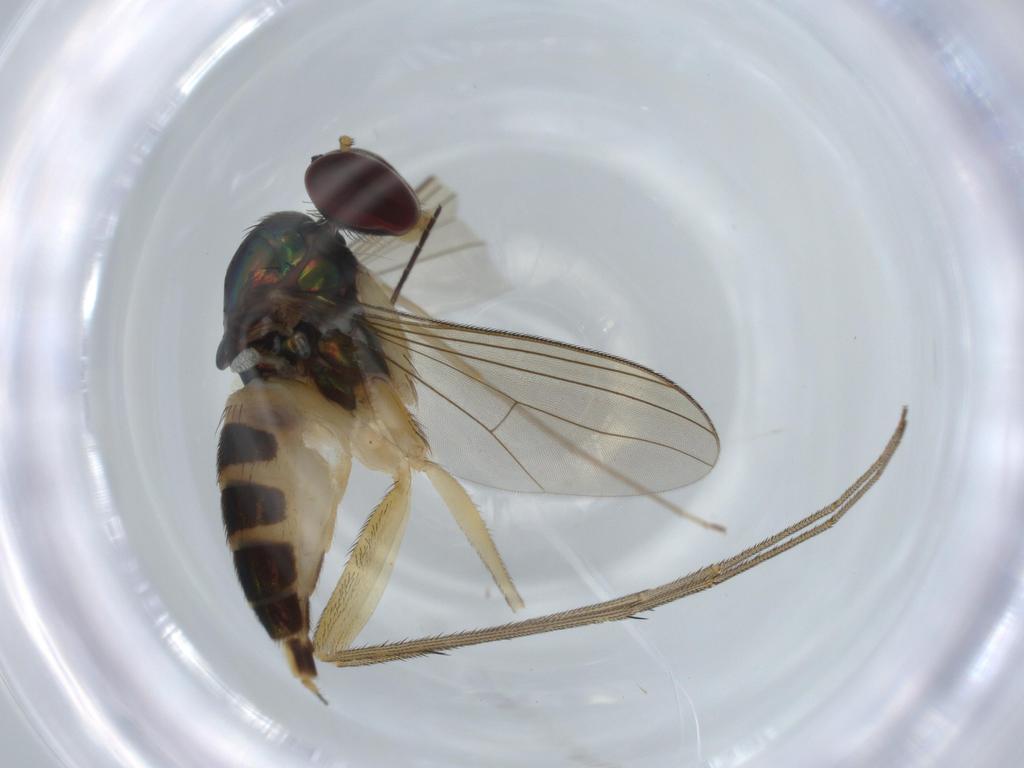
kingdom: Animalia
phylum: Arthropoda
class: Insecta
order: Diptera
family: Dolichopodidae
